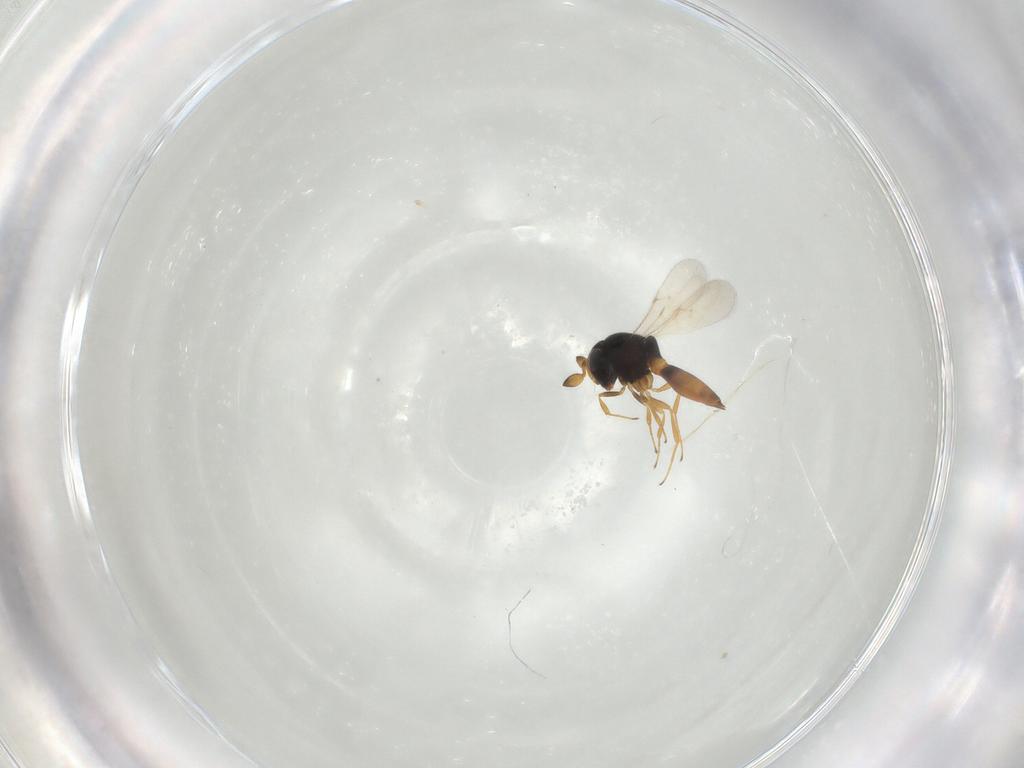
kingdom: Animalia
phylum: Arthropoda
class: Insecta
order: Hymenoptera
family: Scelionidae
